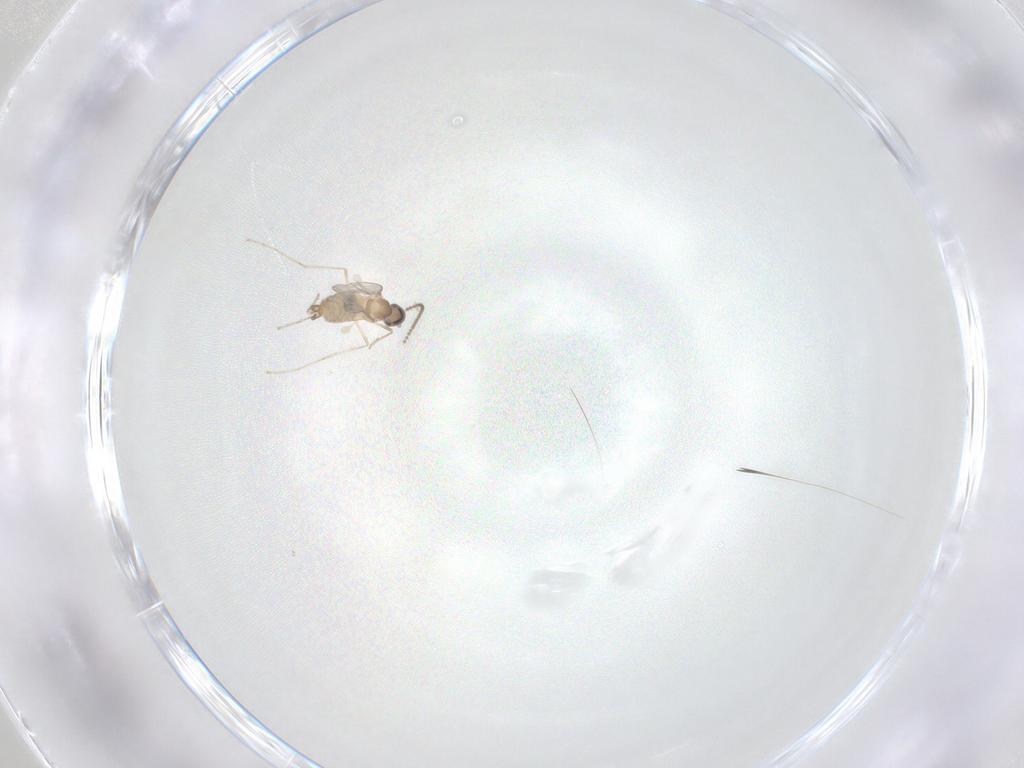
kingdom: Animalia
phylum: Arthropoda
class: Insecta
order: Diptera
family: Cecidomyiidae
